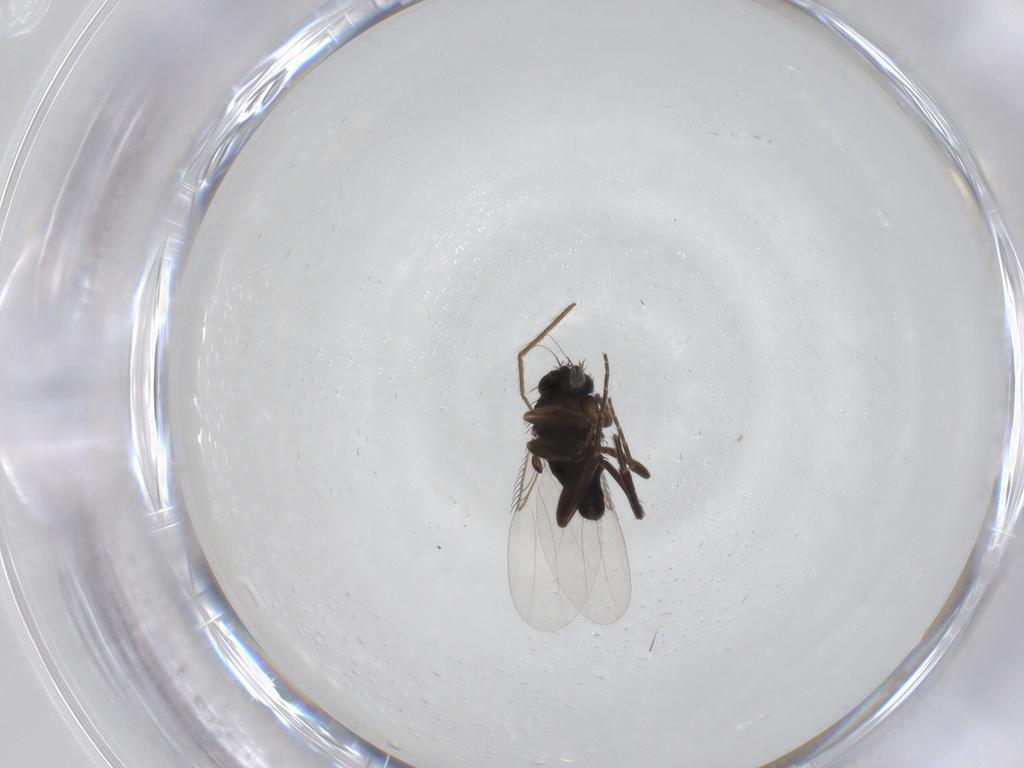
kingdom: Animalia
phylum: Arthropoda
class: Insecta
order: Diptera
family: Phoridae
